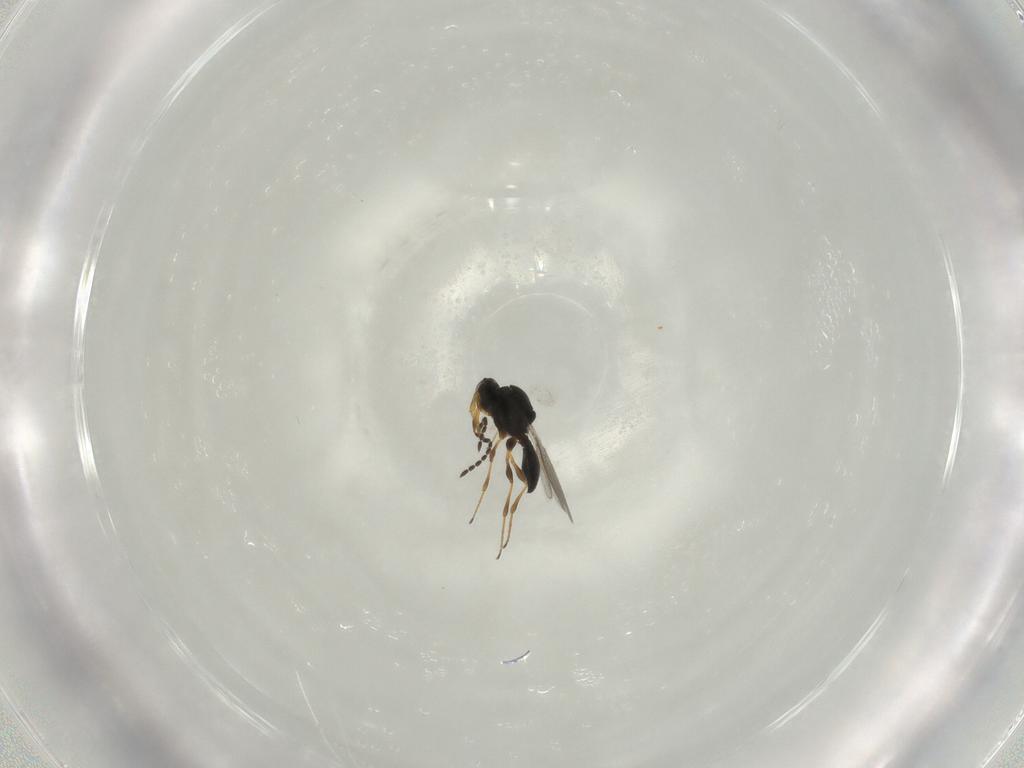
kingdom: Animalia
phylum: Arthropoda
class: Insecta
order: Hymenoptera
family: Platygastridae
